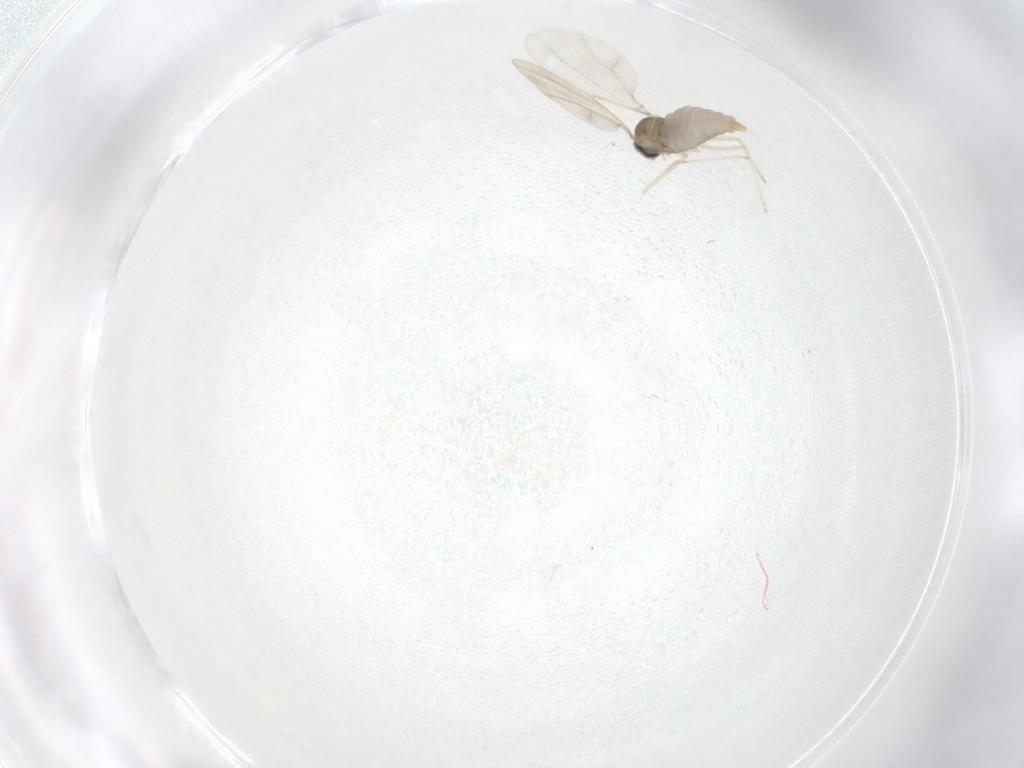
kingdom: Animalia
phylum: Arthropoda
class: Insecta
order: Diptera
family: Cecidomyiidae
